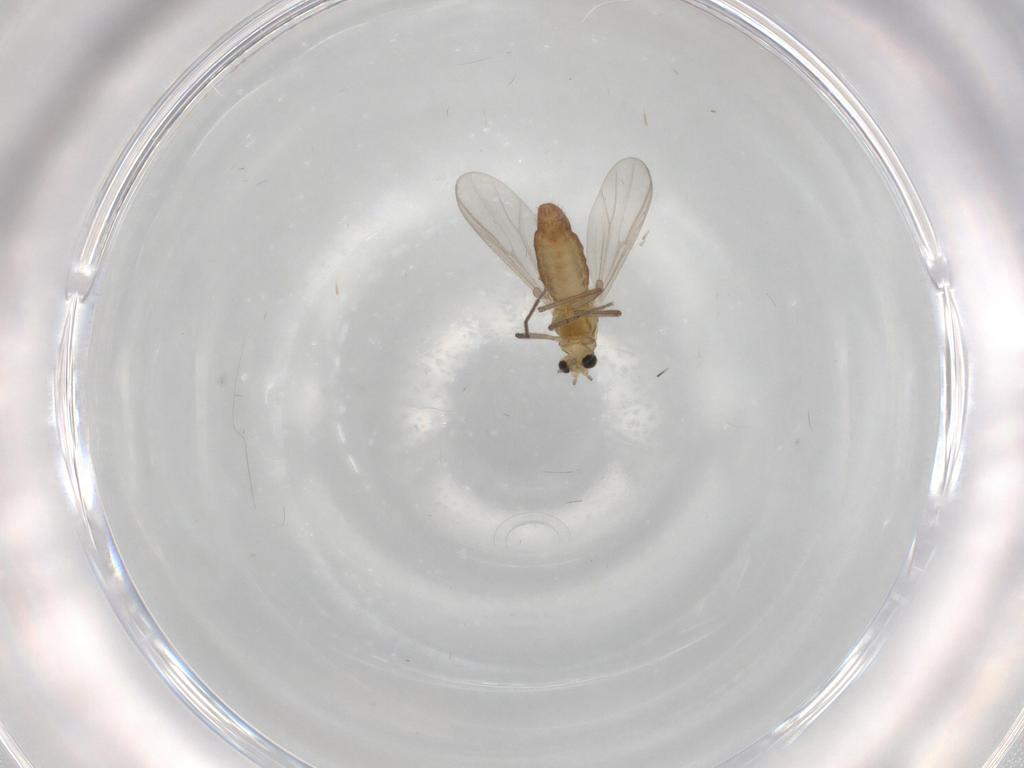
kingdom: Animalia
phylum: Arthropoda
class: Insecta
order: Diptera
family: Chironomidae
